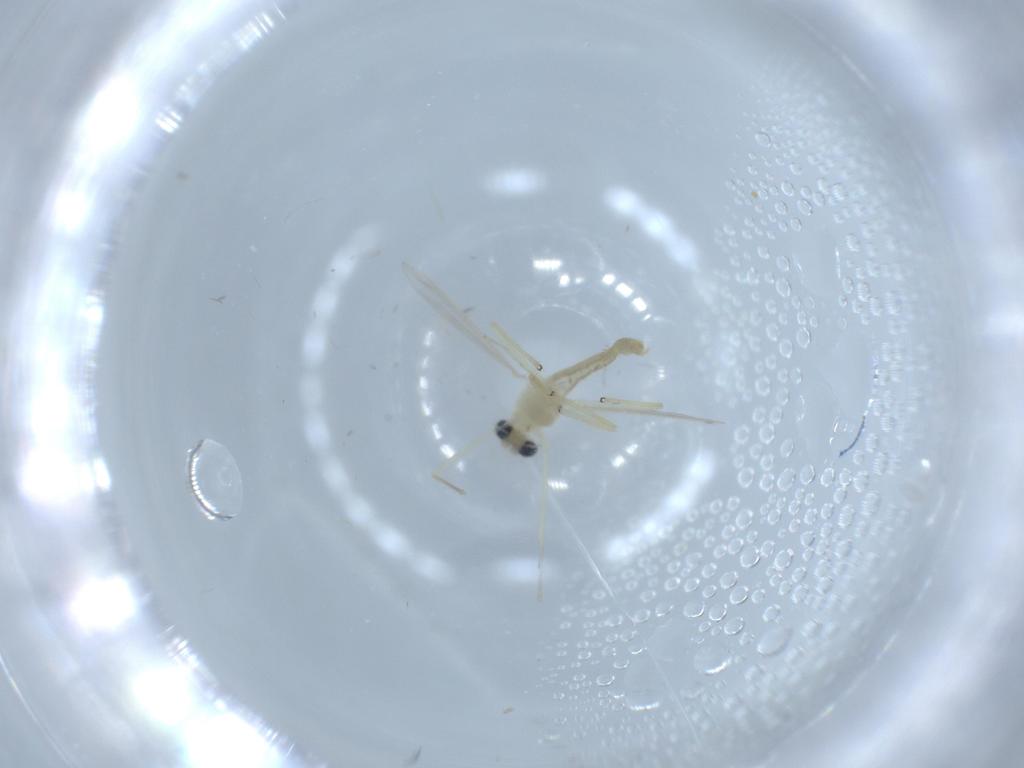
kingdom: Animalia
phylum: Arthropoda
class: Insecta
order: Diptera
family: Chironomidae
